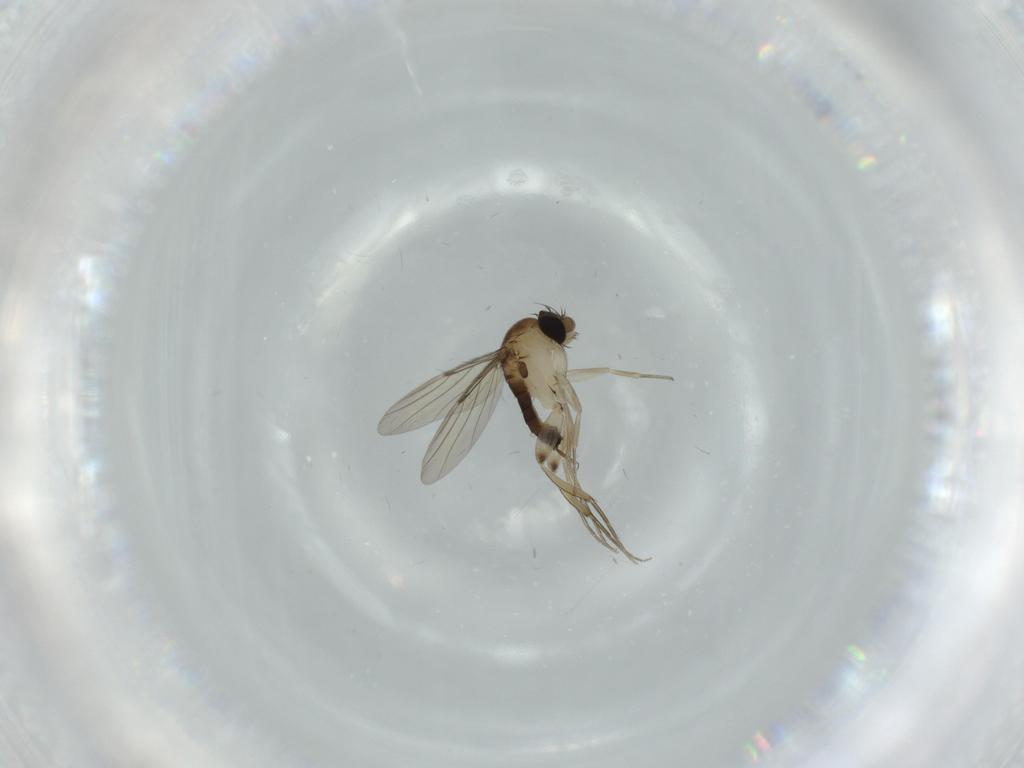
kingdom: Animalia
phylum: Arthropoda
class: Insecta
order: Diptera
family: Phoridae
